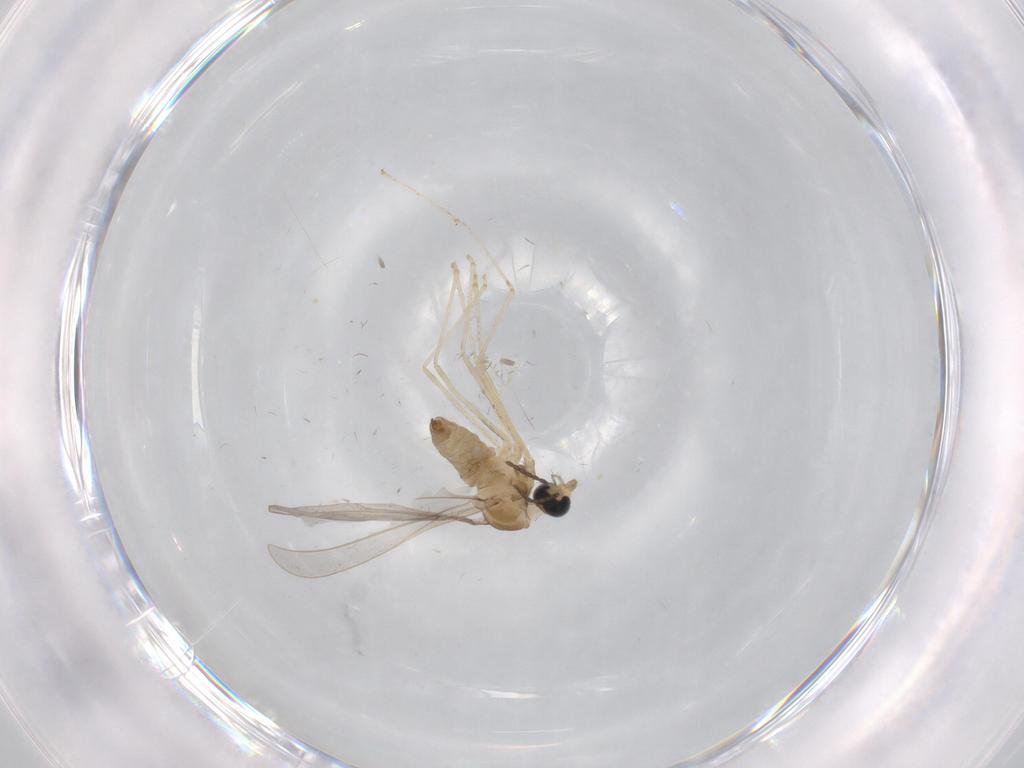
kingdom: Animalia
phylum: Arthropoda
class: Insecta
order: Diptera
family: Cecidomyiidae
